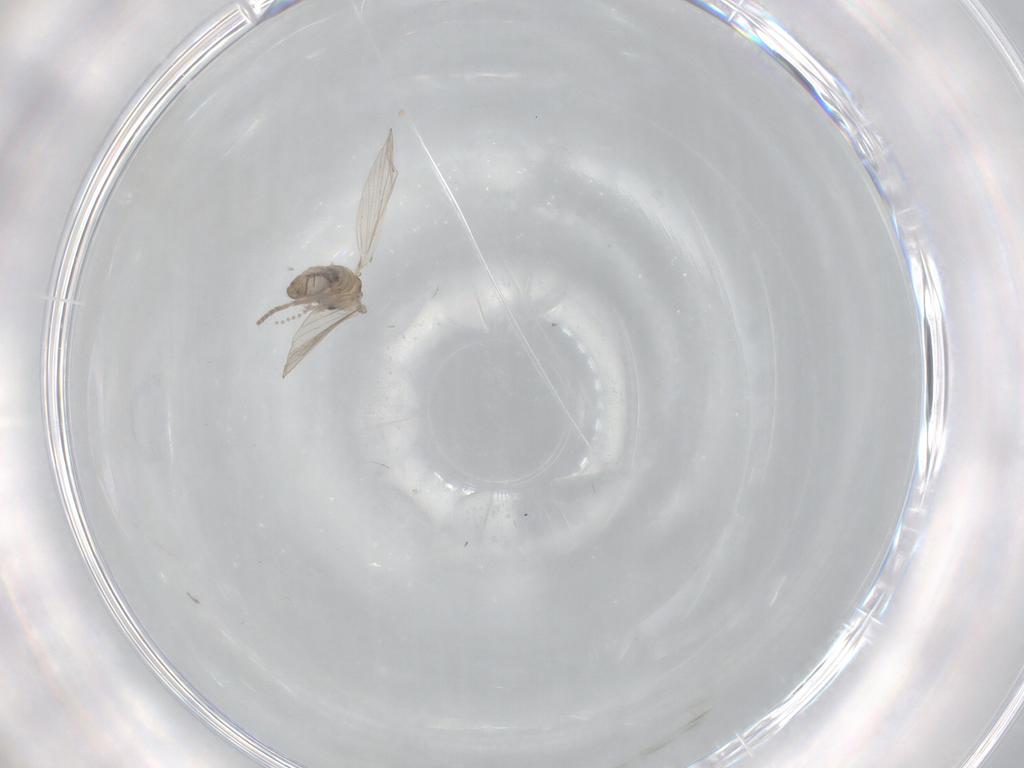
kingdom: Animalia
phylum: Arthropoda
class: Insecta
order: Diptera
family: Psychodidae
